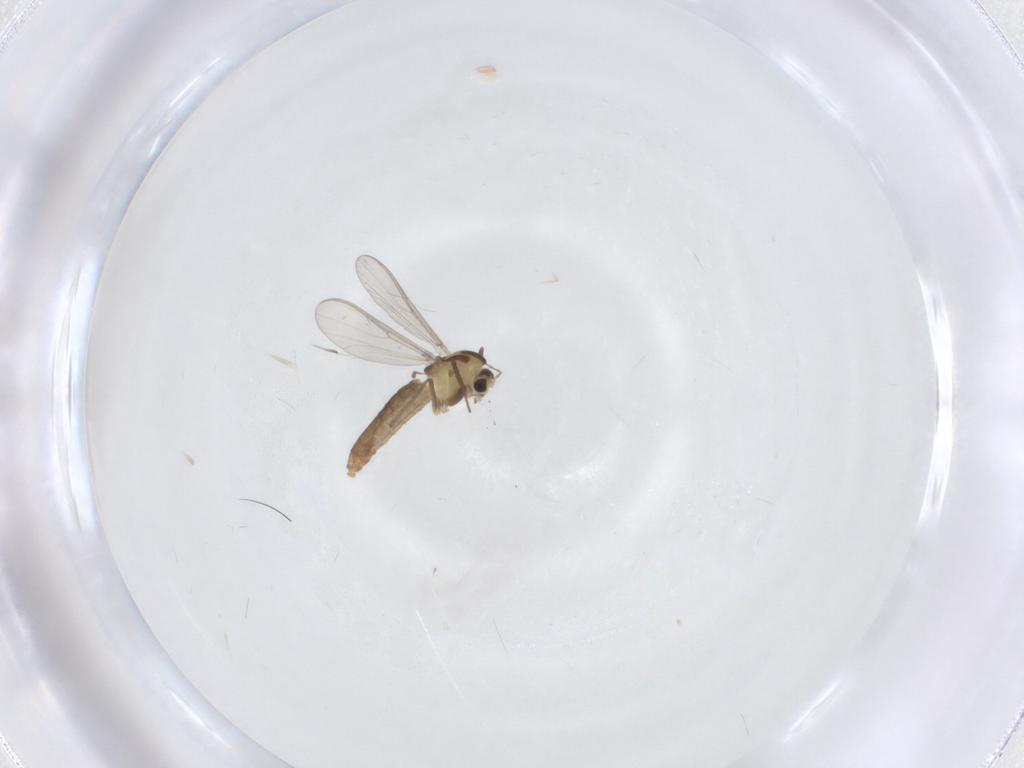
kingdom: Animalia
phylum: Arthropoda
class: Insecta
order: Diptera
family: Chironomidae
